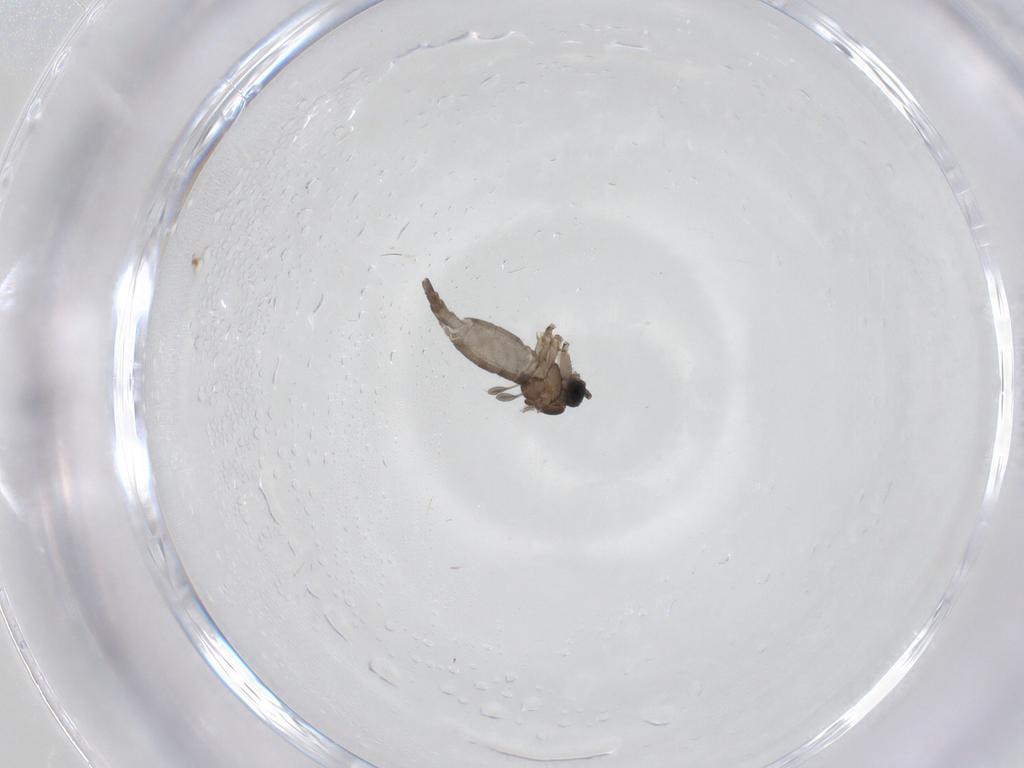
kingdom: Animalia
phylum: Arthropoda
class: Insecta
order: Diptera
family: Sciaridae
